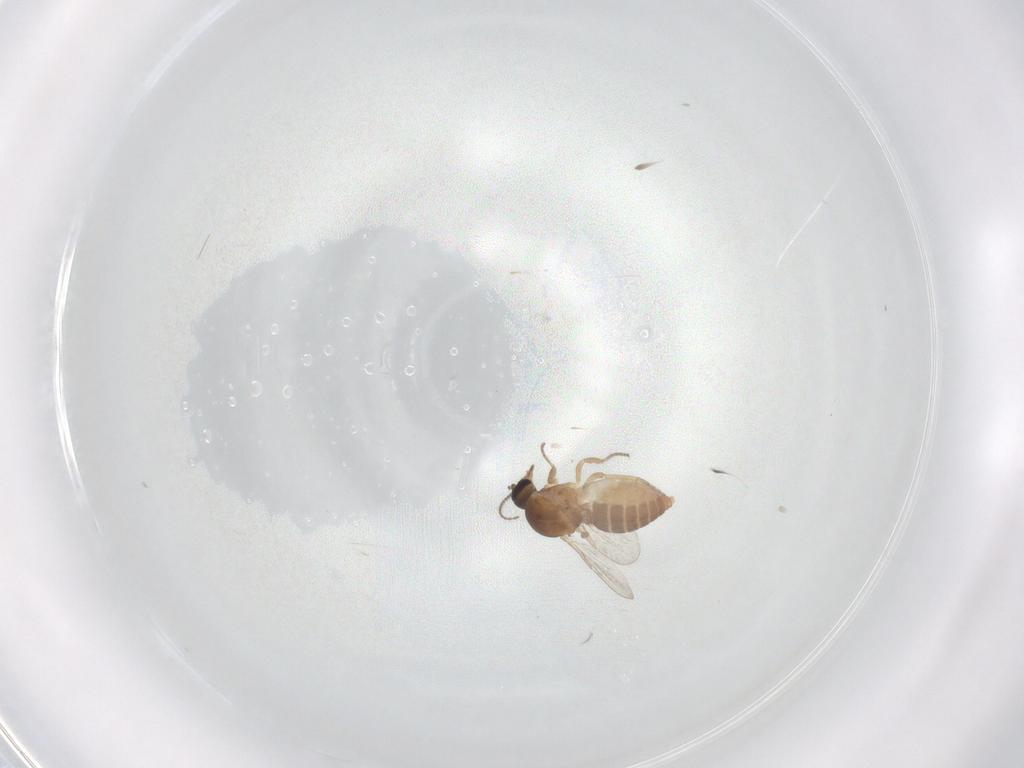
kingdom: Animalia
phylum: Arthropoda
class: Insecta
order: Diptera
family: Ceratopogonidae
